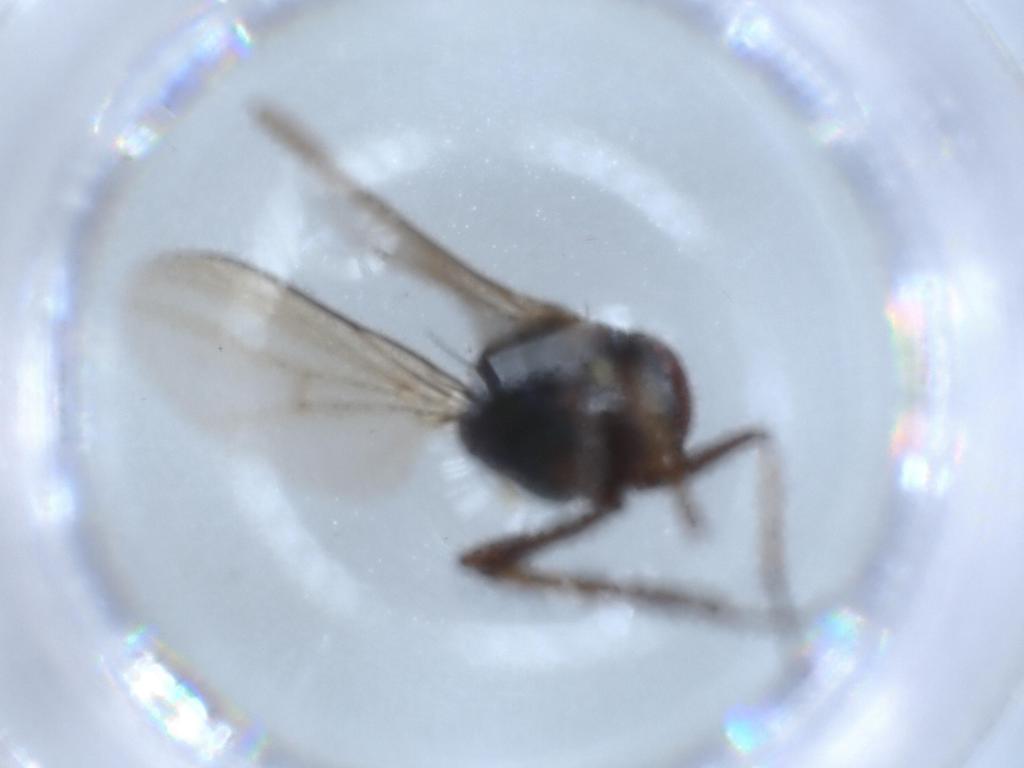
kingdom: Animalia
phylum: Arthropoda
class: Insecta
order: Diptera
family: Dolichopodidae
